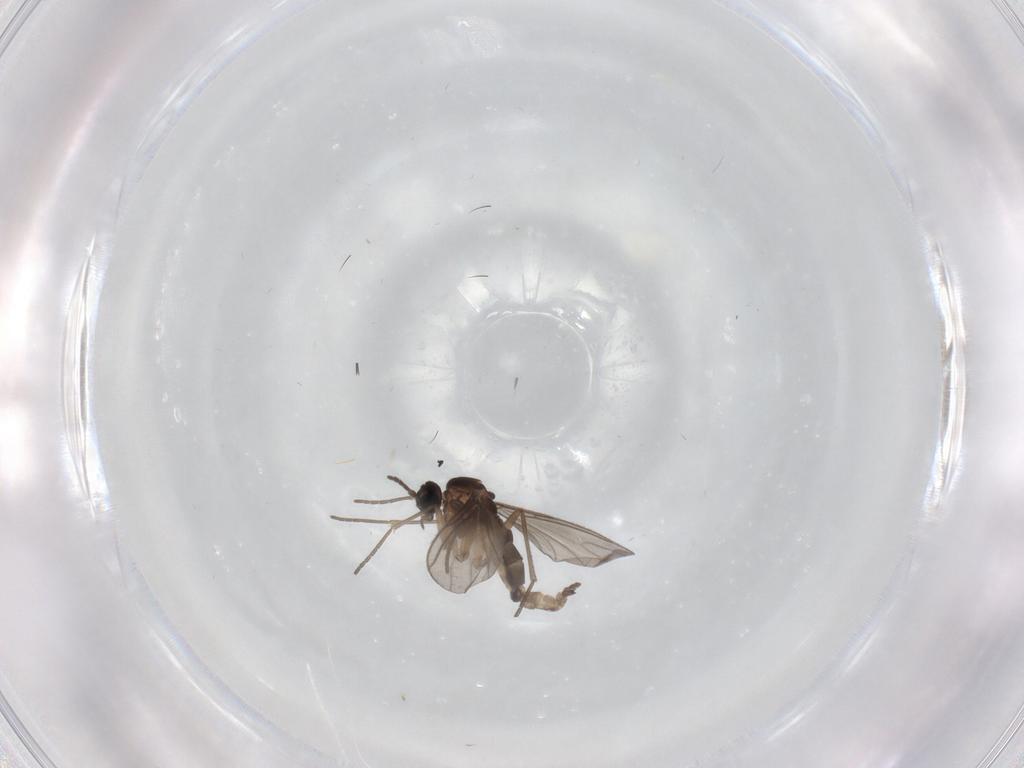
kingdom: Animalia
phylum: Arthropoda
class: Insecta
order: Diptera
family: Sciaridae
